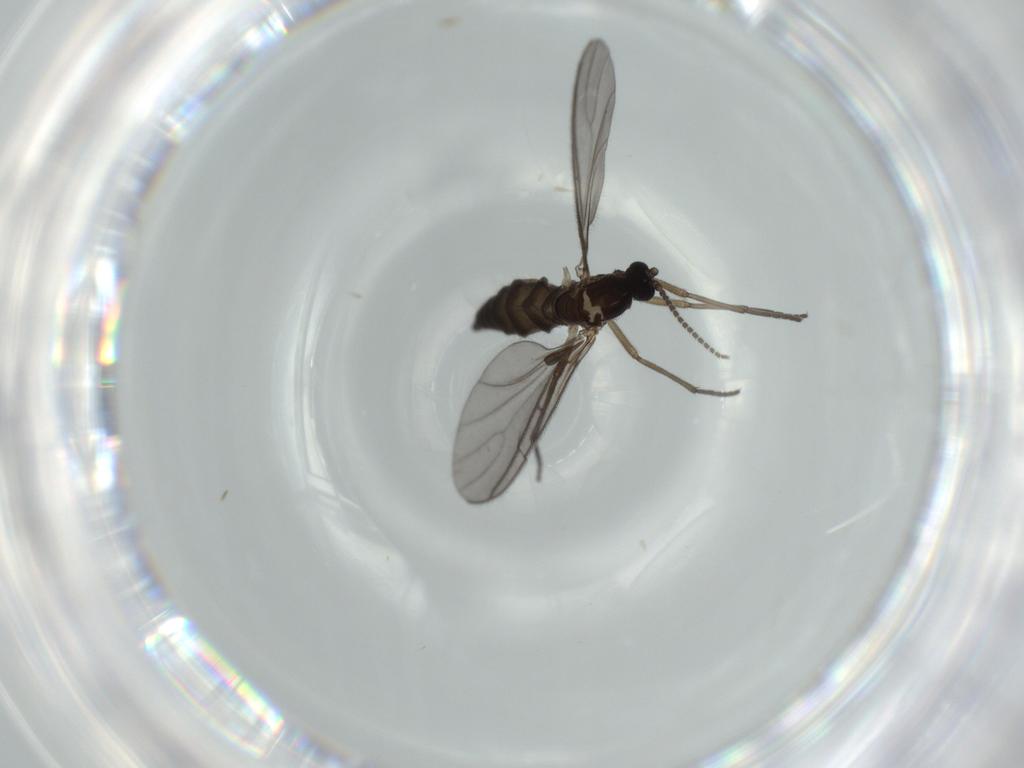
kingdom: Animalia
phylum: Arthropoda
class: Insecta
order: Diptera
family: Sciaridae
